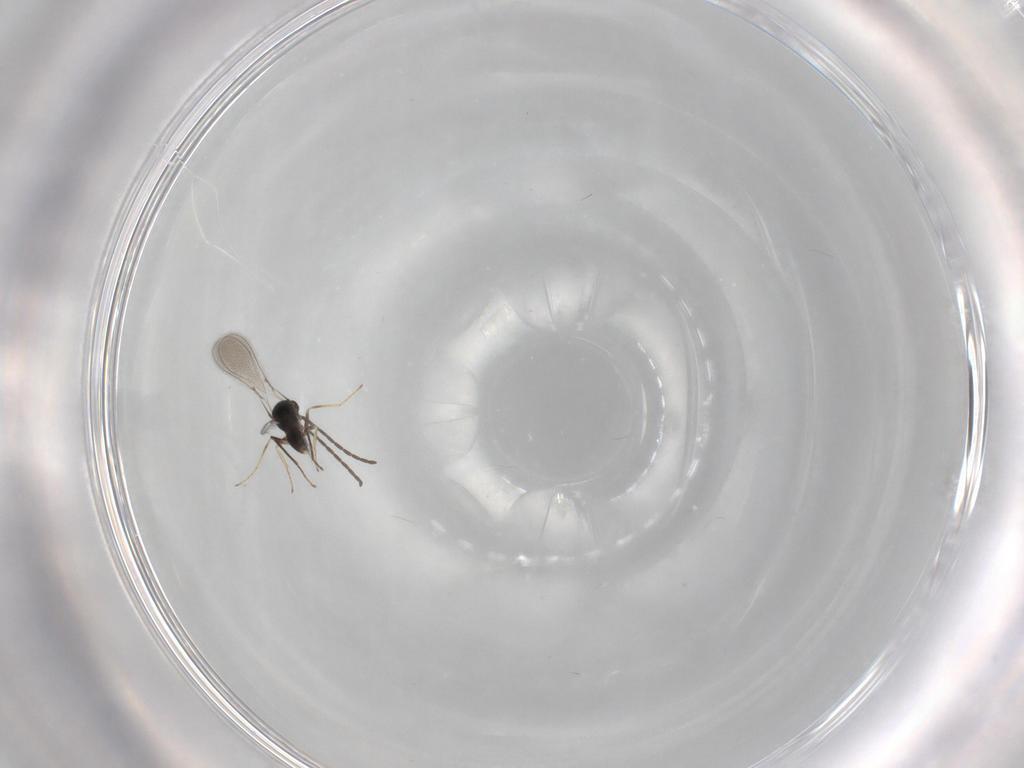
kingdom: Animalia
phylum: Arthropoda
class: Insecta
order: Hymenoptera
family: Mymaridae
